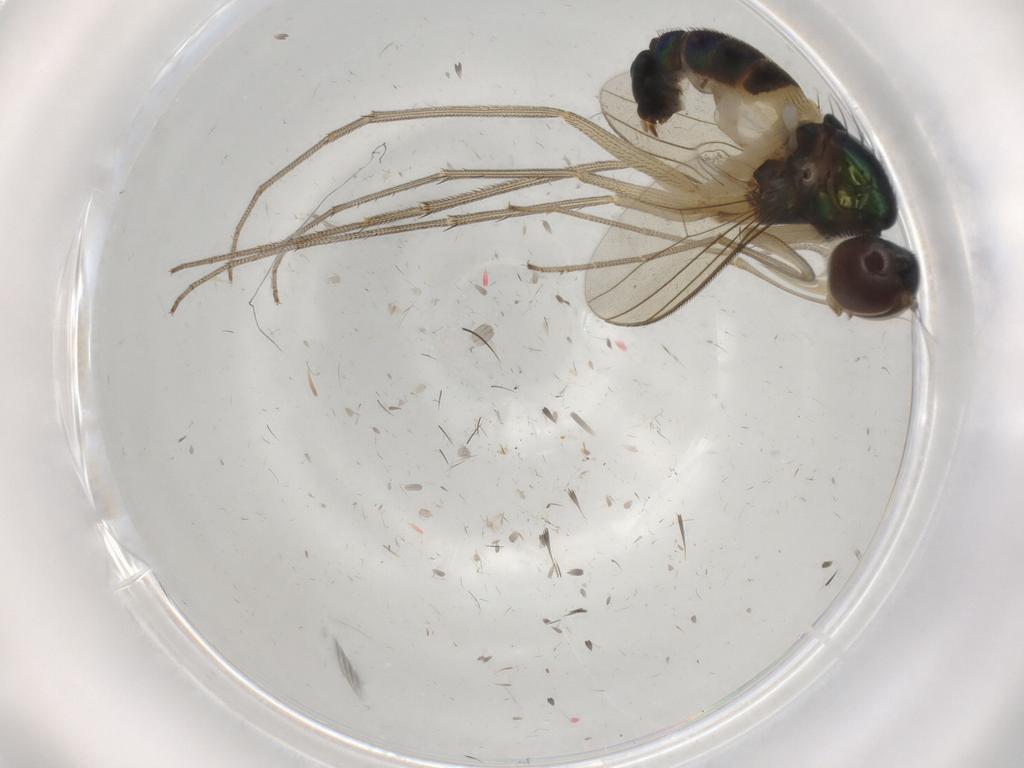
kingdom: Animalia
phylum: Arthropoda
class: Insecta
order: Diptera
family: Dolichopodidae
